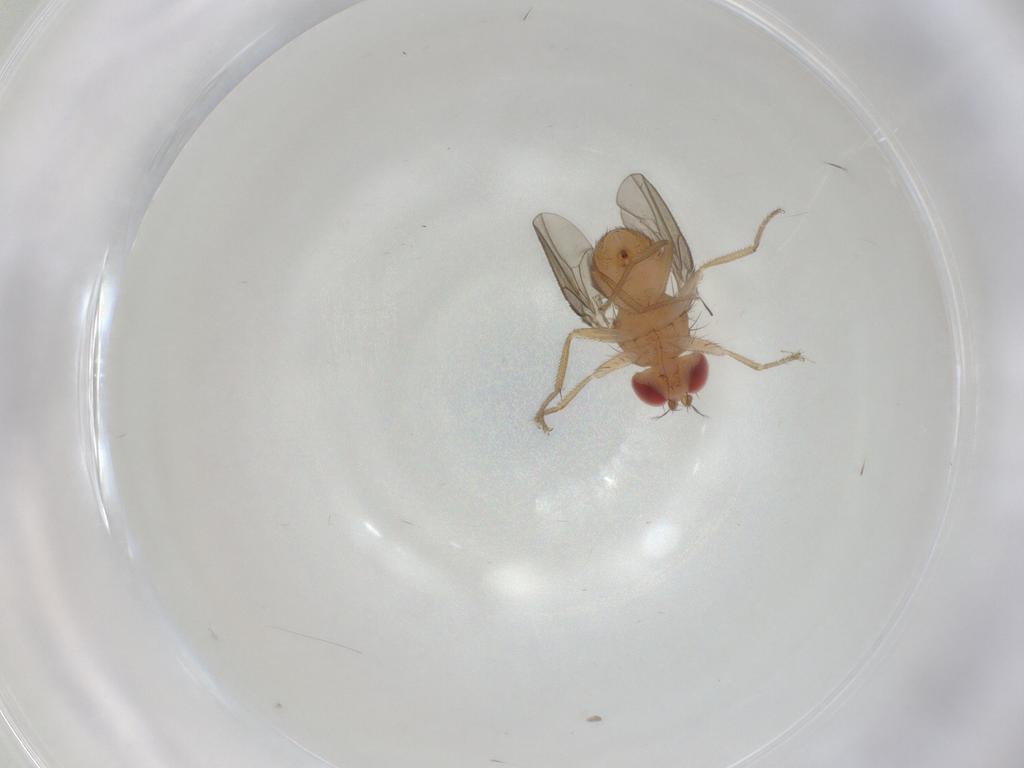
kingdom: Animalia
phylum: Arthropoda
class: Insecta
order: Diptera
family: Drosophilidae
